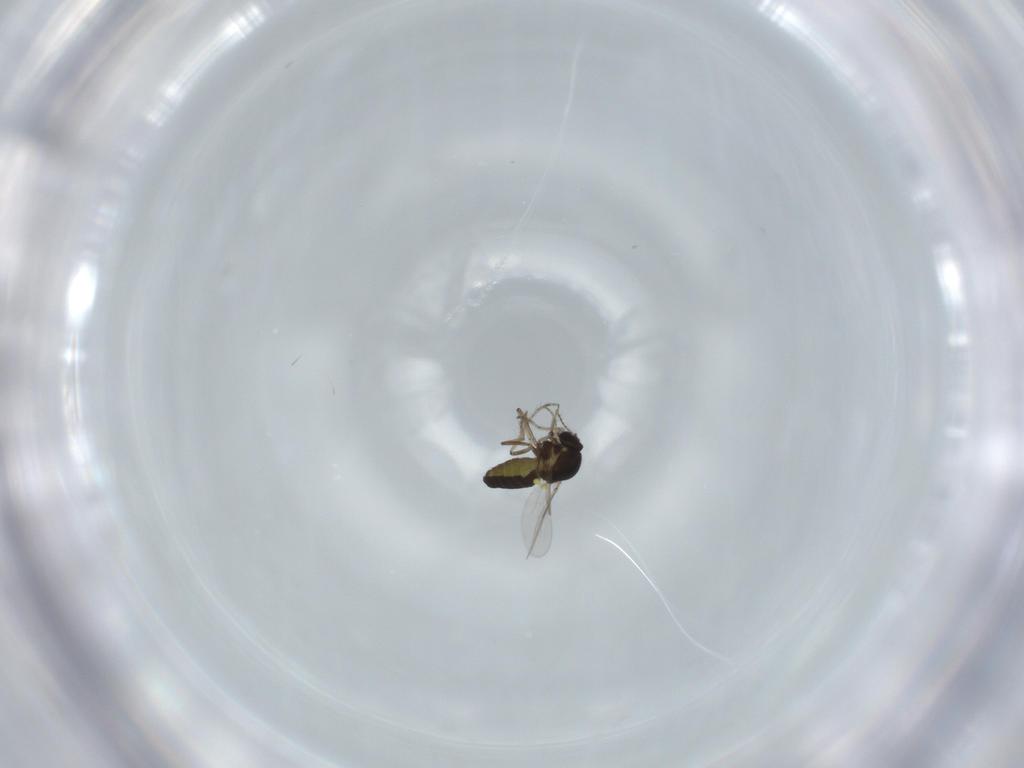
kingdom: Animalia
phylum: Arthropoda
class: Insecta
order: Diptera
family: Ceratopogonidae
